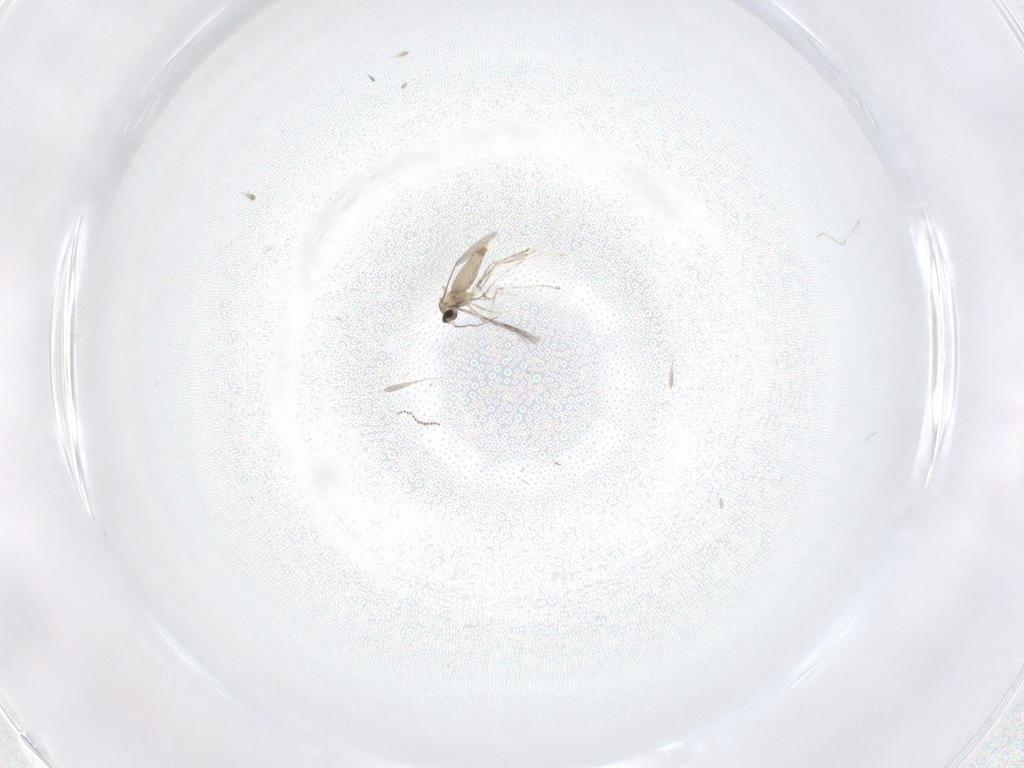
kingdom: Animalia
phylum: Arthropoda
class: Insecta
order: Diptera
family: Cecidomyiidae
